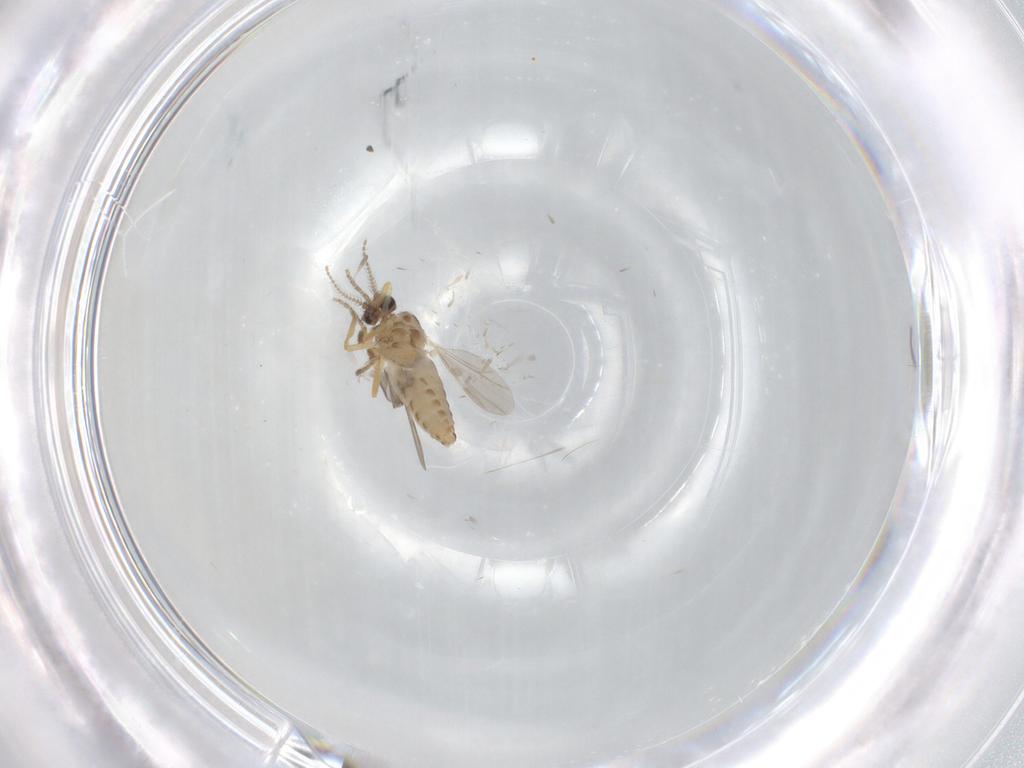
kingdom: Animalia
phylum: Arthropoda
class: Insecta
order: Diptera
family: Ceratopogonidae
